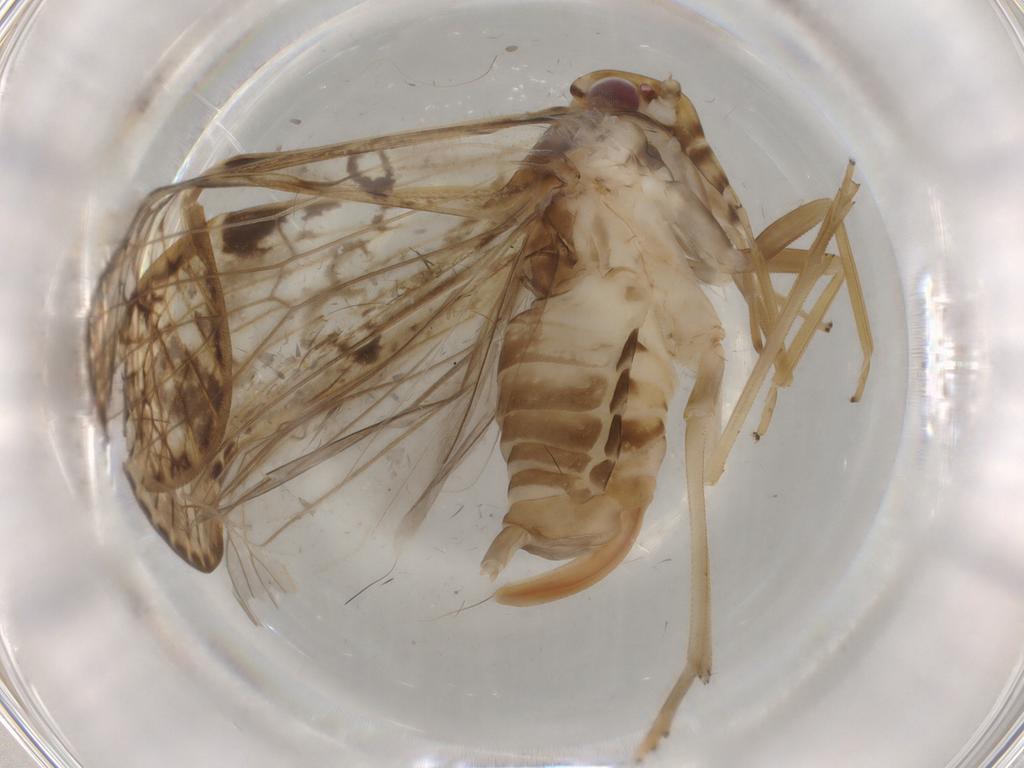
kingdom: Animalia
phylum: Arthropoda
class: Insecta
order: Hemiptera
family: Cixiidae
